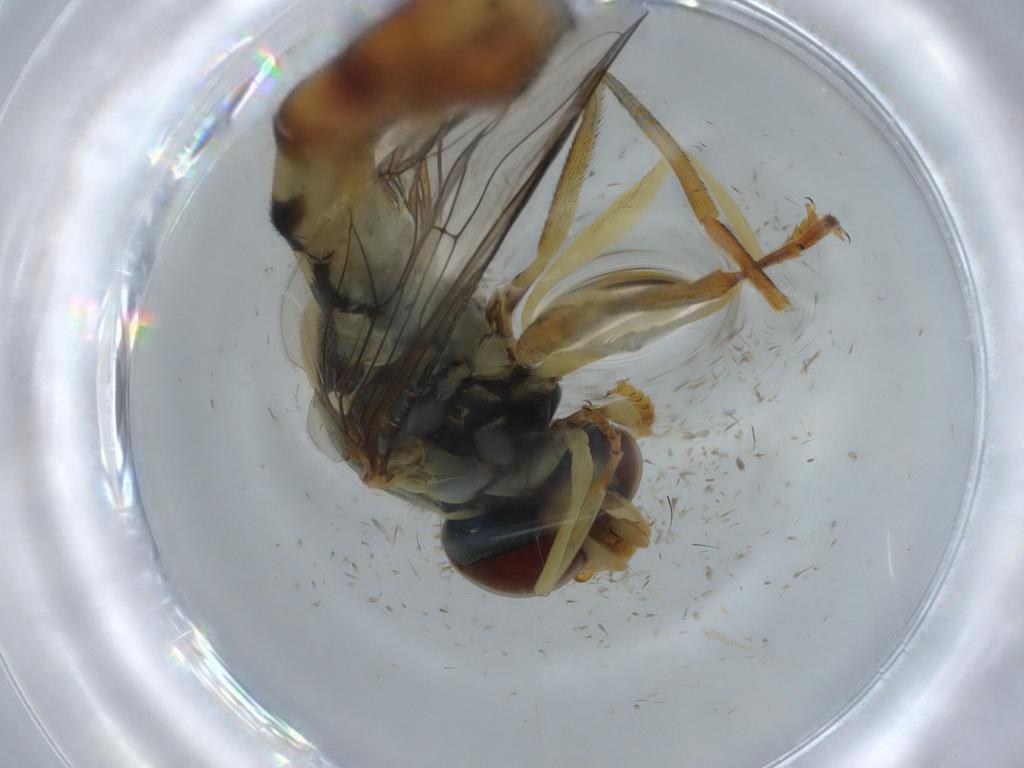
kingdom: Animalia
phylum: Arthropoda
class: Insecta
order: Diptera
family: Syrphidae
